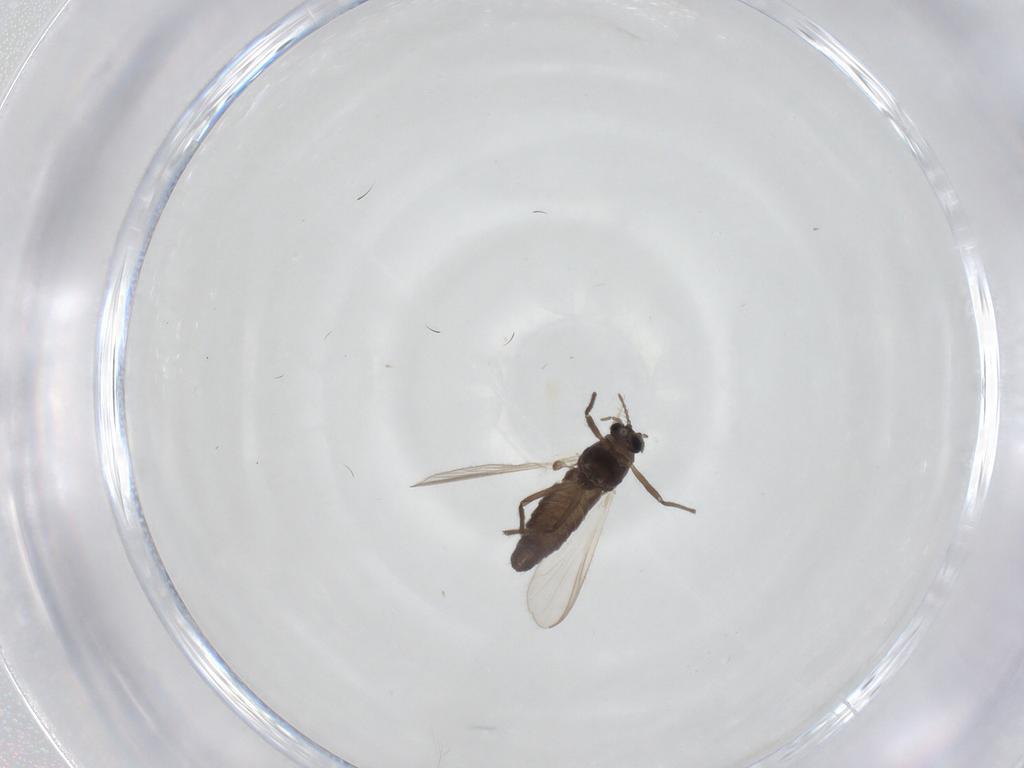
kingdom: Animalia
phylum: Arthropoda
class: Insecta
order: Diptera
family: Chironomidae
